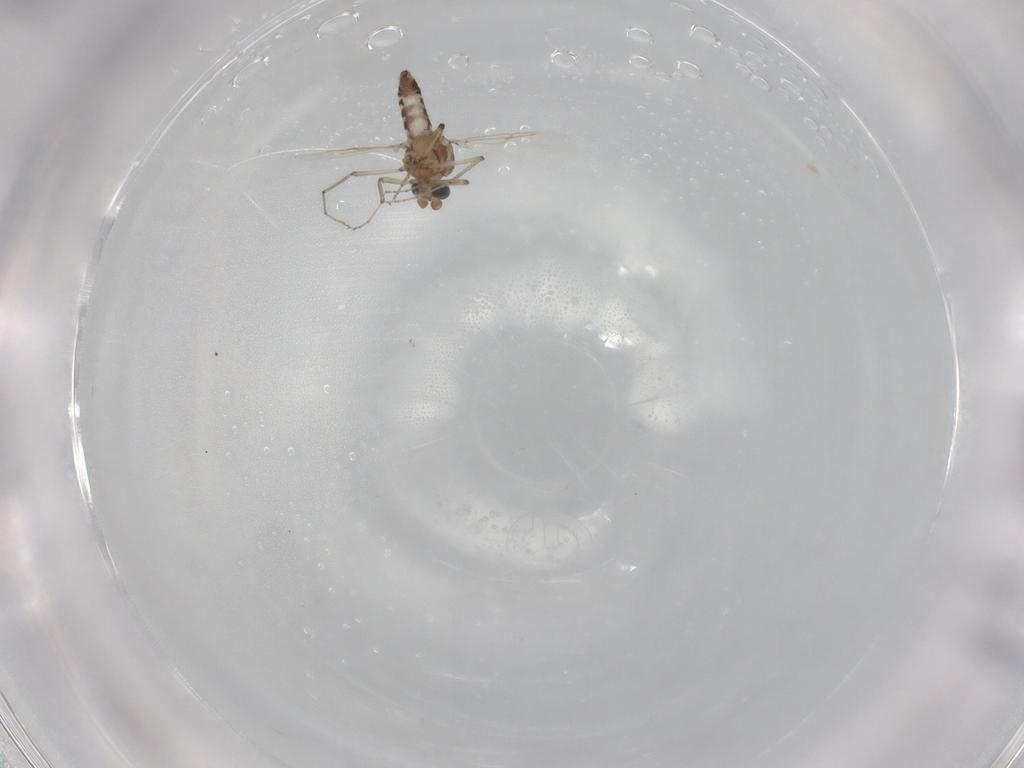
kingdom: Animalia
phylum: Arthropoda
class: Insecta
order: Diptera
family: Ceratopogonidae
